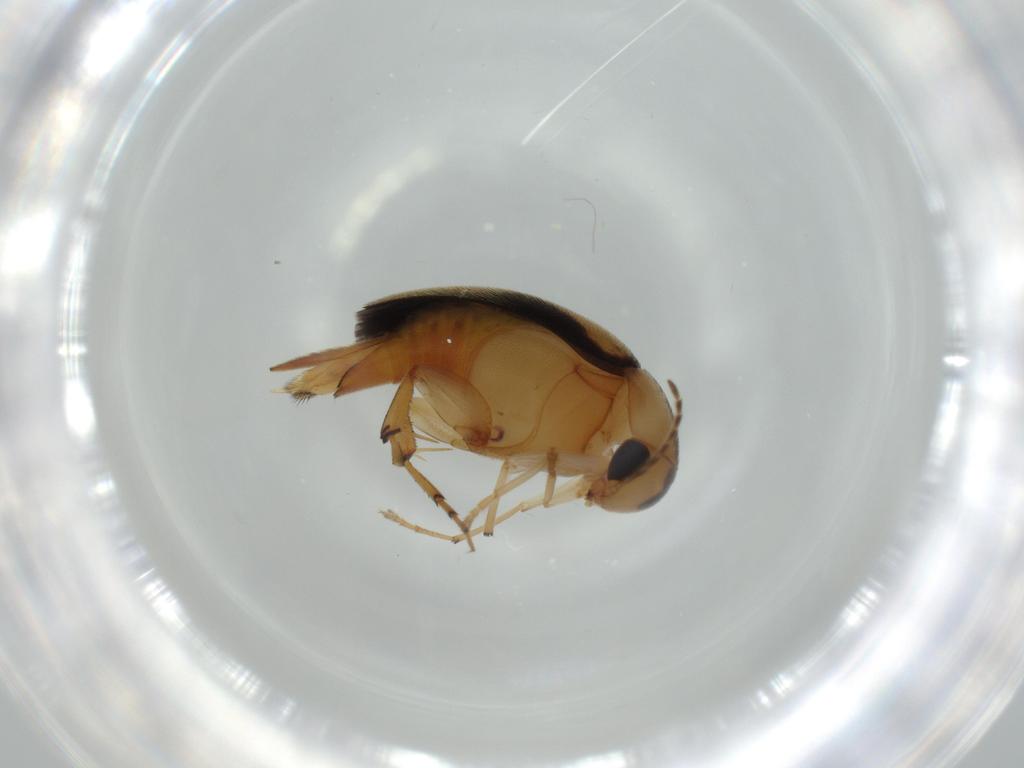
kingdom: Animalia
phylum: Arthropoda
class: Insecta
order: Coleoptera
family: Mordellidae
